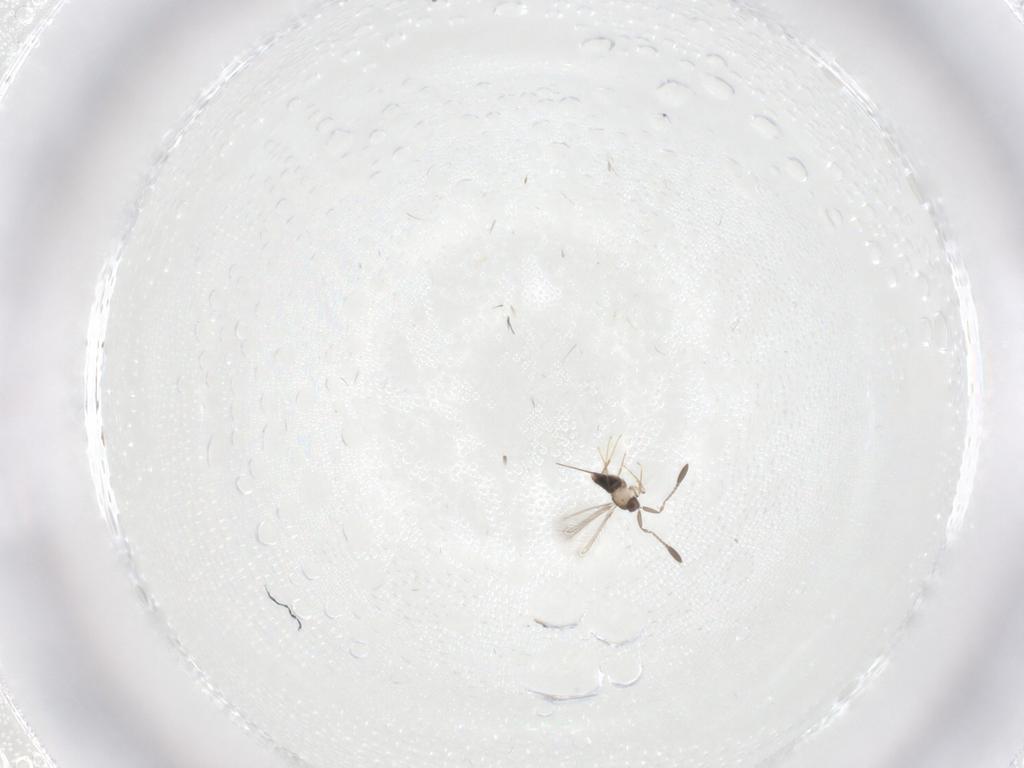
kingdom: Animalia
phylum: Arthropoda
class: Insecta
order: Hymenoptera
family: Mymaridae
